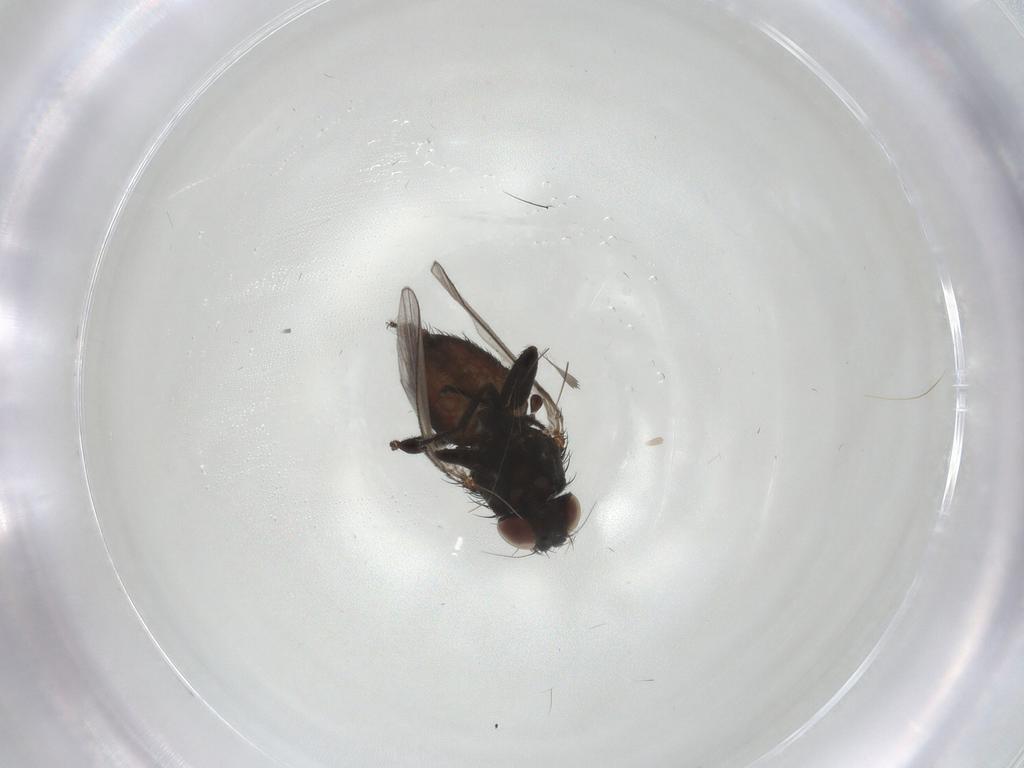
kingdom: Animalia
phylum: Arthropoda
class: Insecta
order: Diptera
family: Milichiidae
